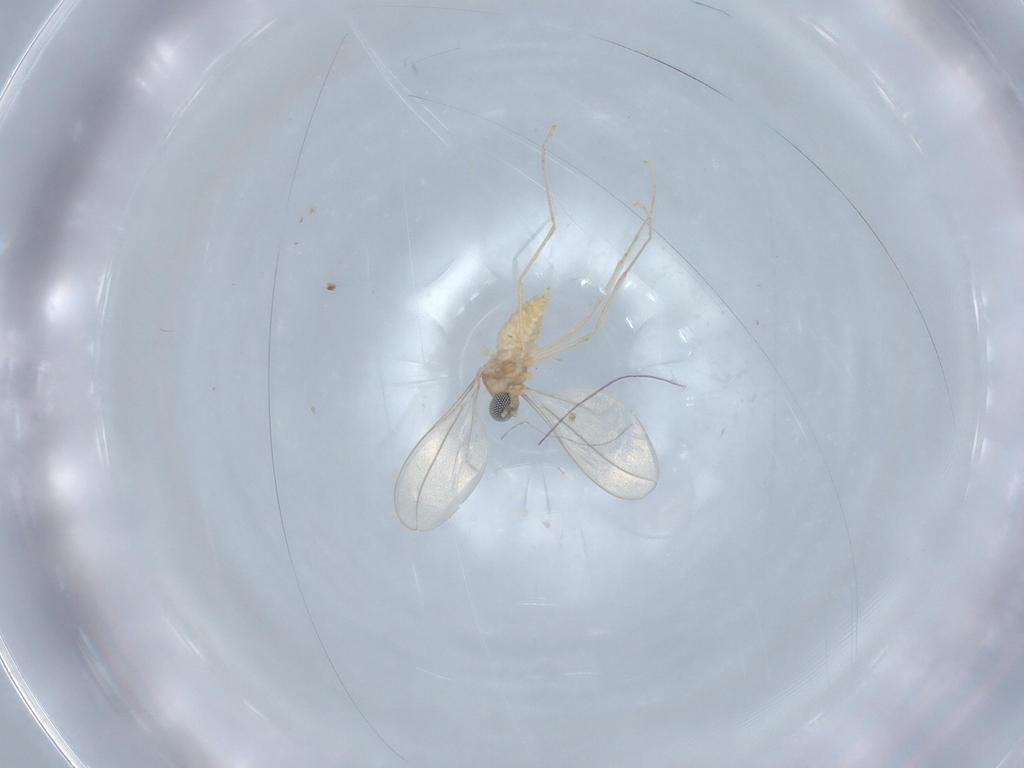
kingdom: Animalia
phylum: Arthropoda
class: Insecta
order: Diptera
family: Cecidomyiidae
